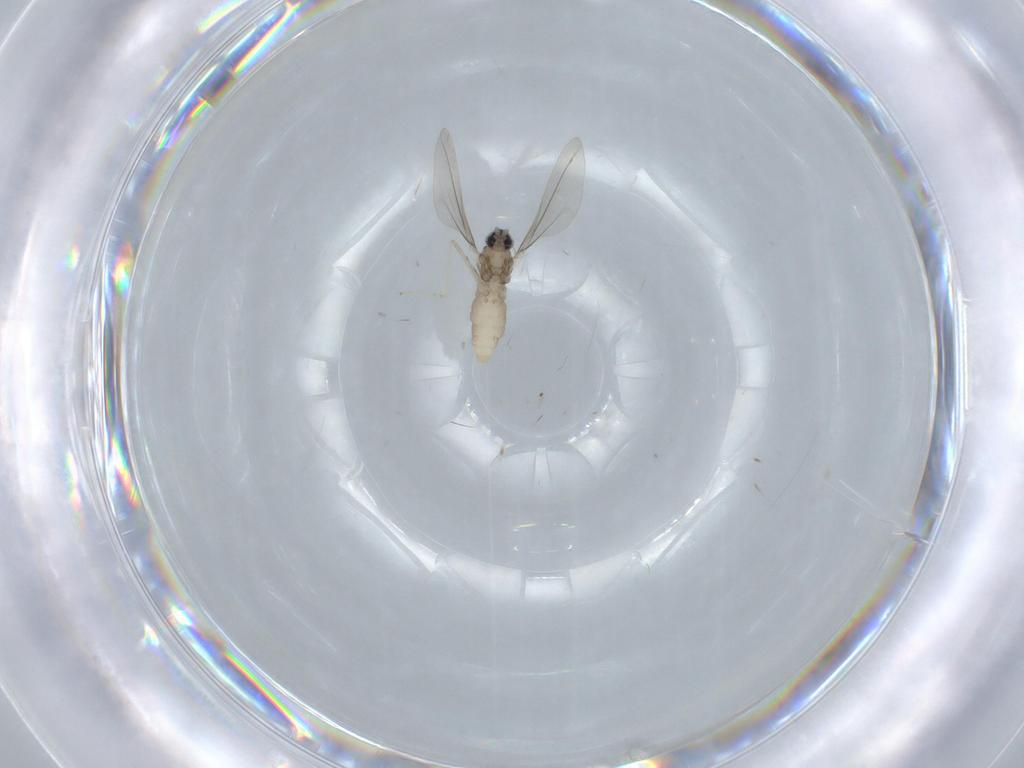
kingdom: Animalia
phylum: Arthropoda
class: Insecta
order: Diptera
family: Cecidomyiidae
